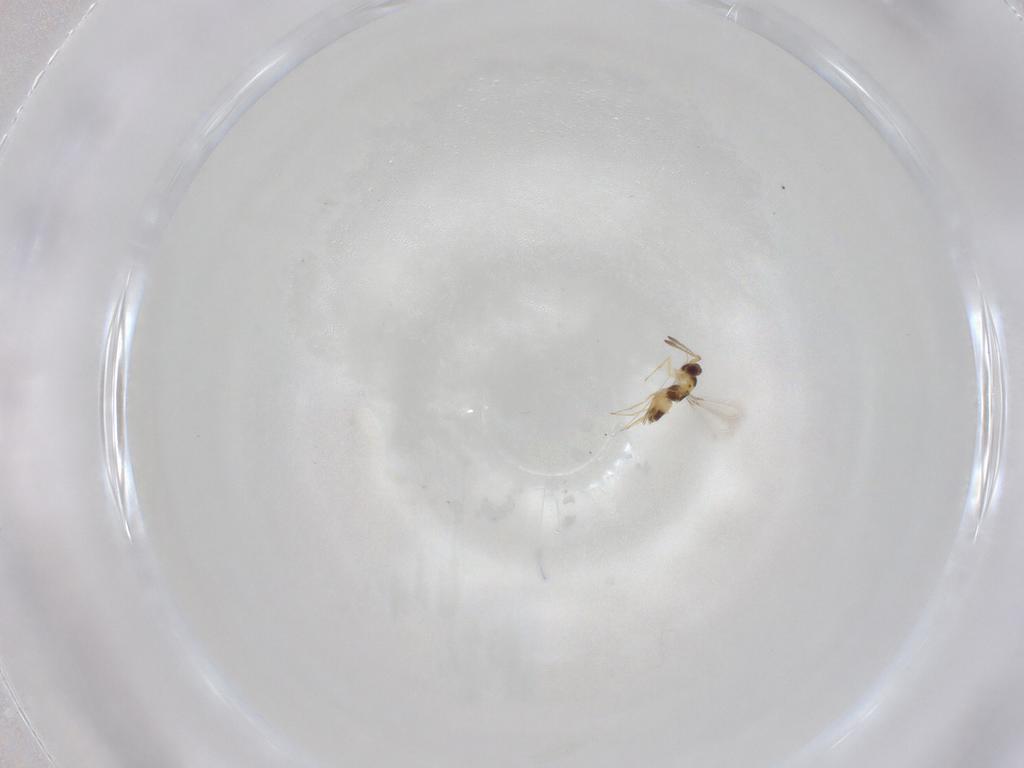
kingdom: Animalia
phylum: Arthropoda
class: Insecta
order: Hymenoptera
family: Mymaridae
